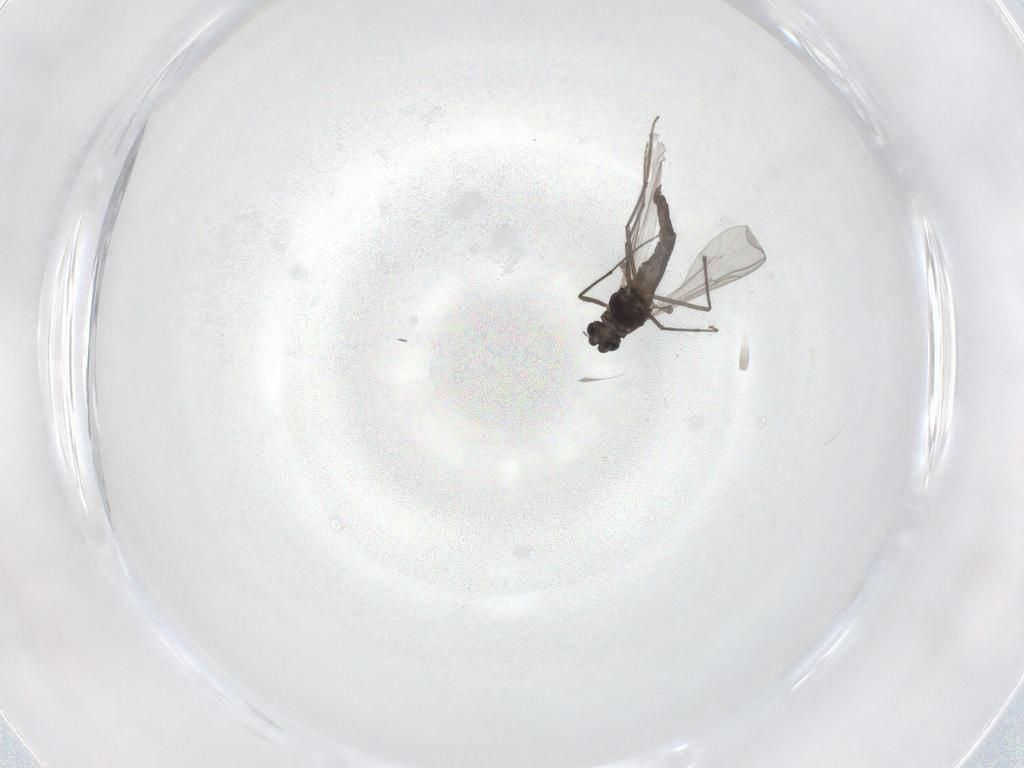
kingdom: Animalia
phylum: Arthropoda
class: Insecta
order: Diptera
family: Chironomidae
